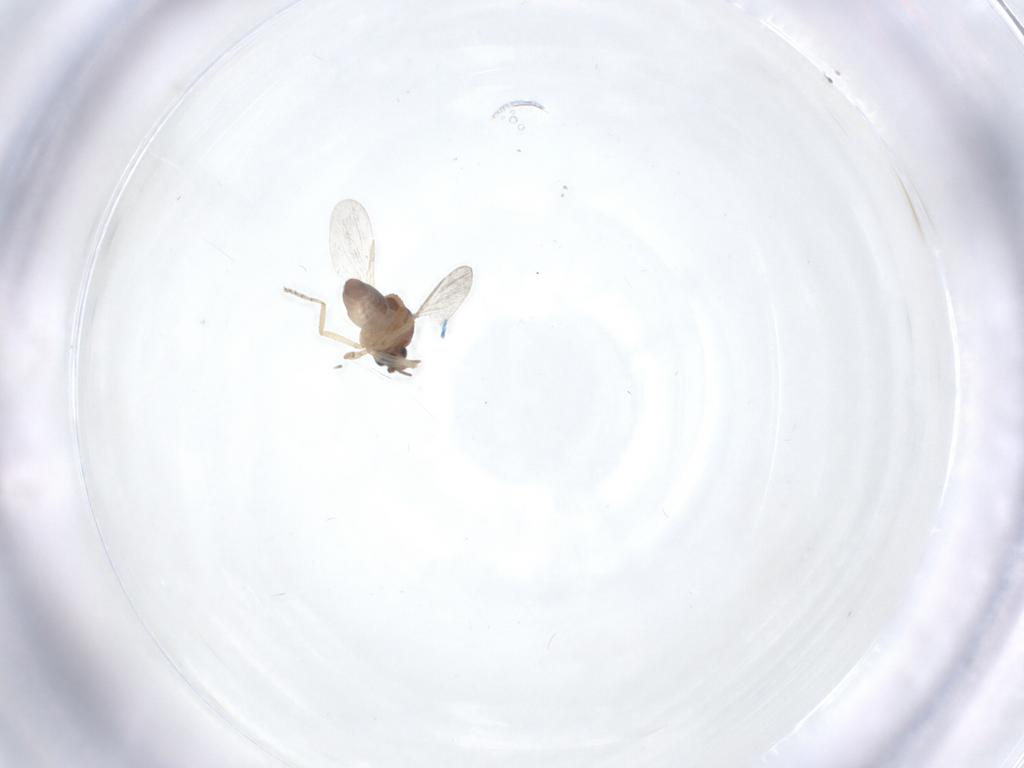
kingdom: Animalia
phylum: Arthropoda
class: Insecta
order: Diptera
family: Ceratopogonidae
